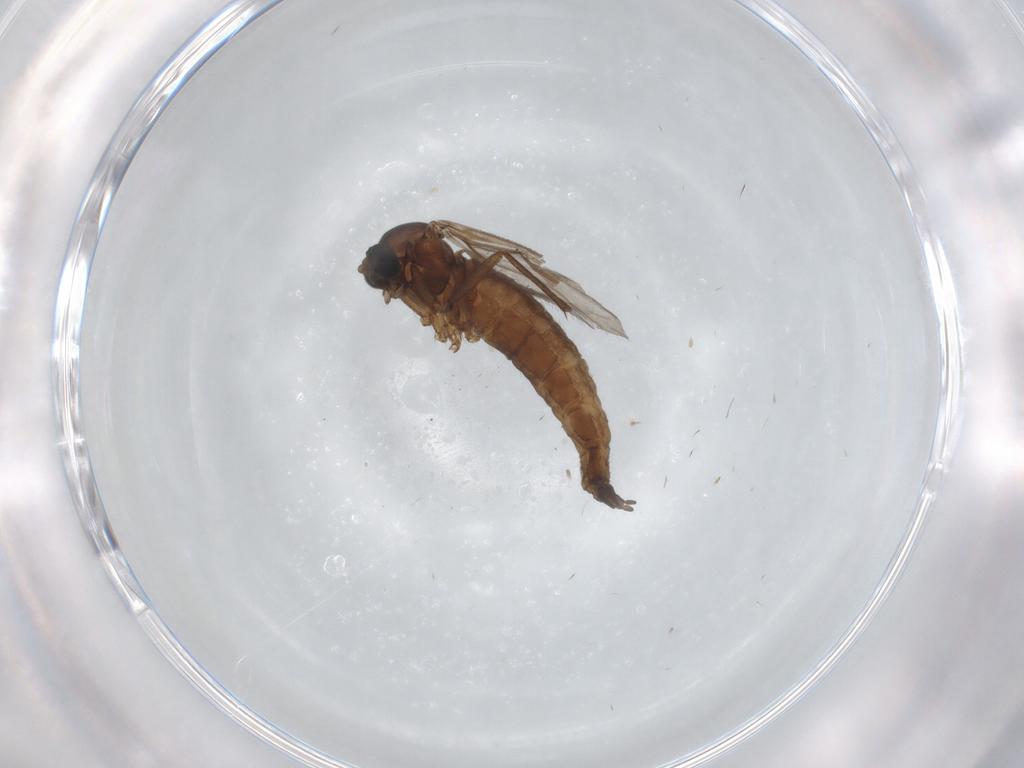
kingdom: Animalia
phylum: Arthropoda
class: Insecta
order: Diptera
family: Sciaridae
